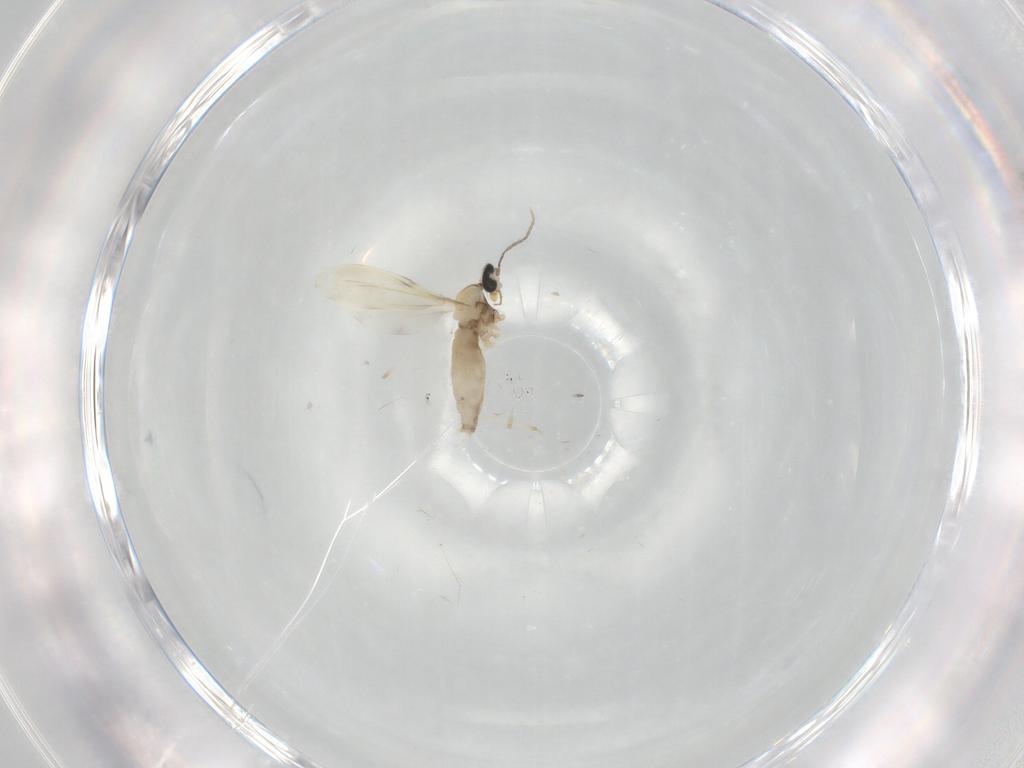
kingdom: Animalia
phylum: Arthropoda
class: Insecta
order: Diptera
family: Cecidomyiidae
